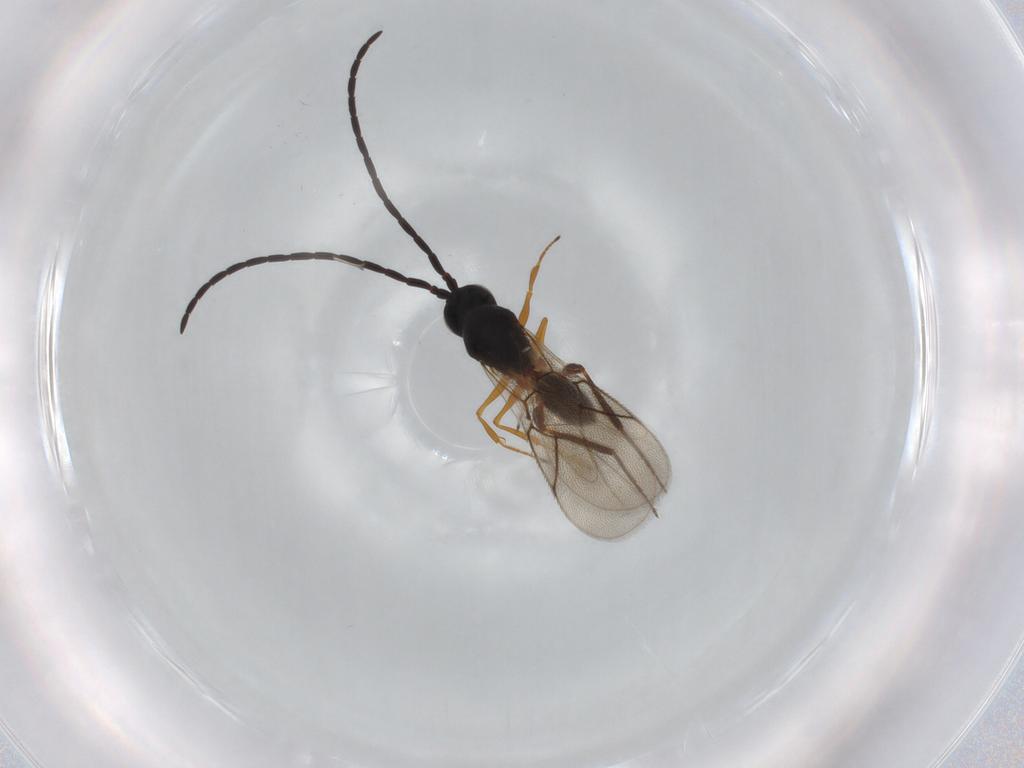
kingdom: Animalia
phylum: Arthropoda
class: Insecta
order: Hymenoptera
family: Figitidae
